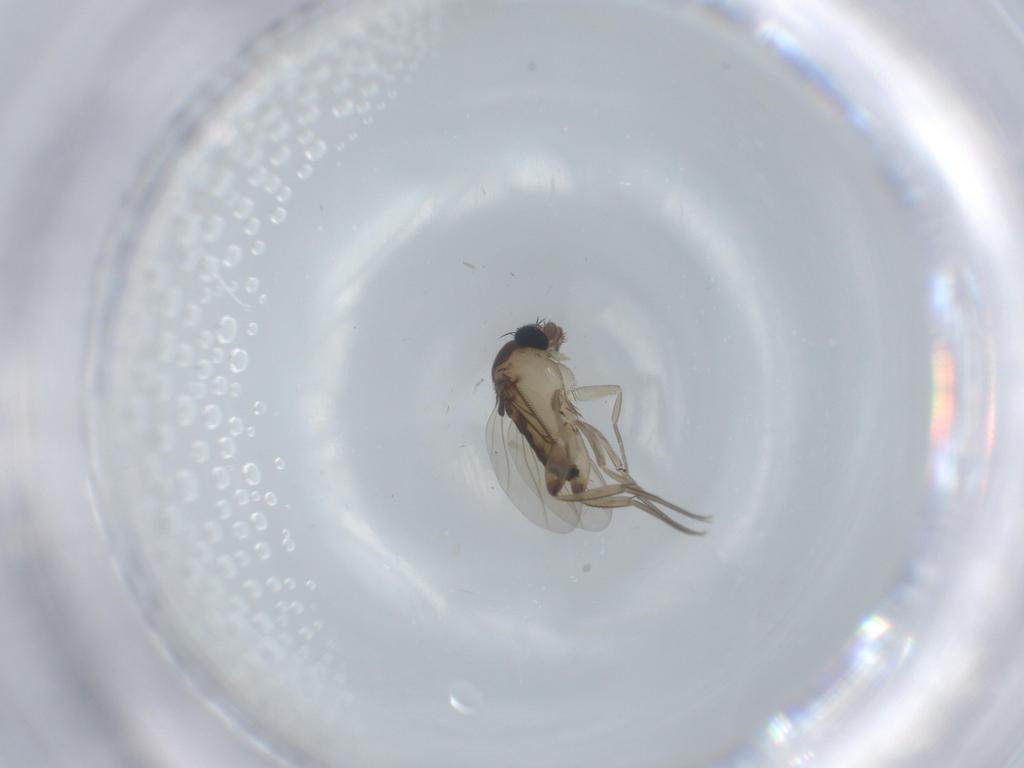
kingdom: Animalia
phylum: Arthropoda
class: Insecta
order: Diptera
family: Phoridae
